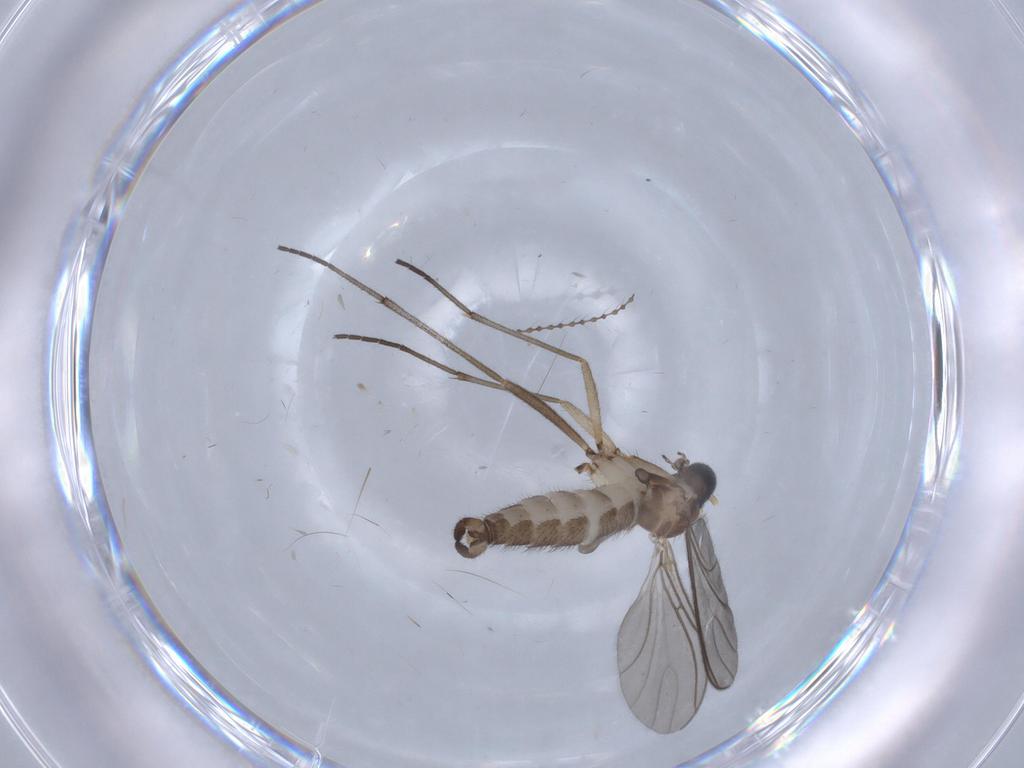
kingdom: Animalia
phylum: Arthropoda
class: Insecta
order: Diptera
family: Sciaridae
